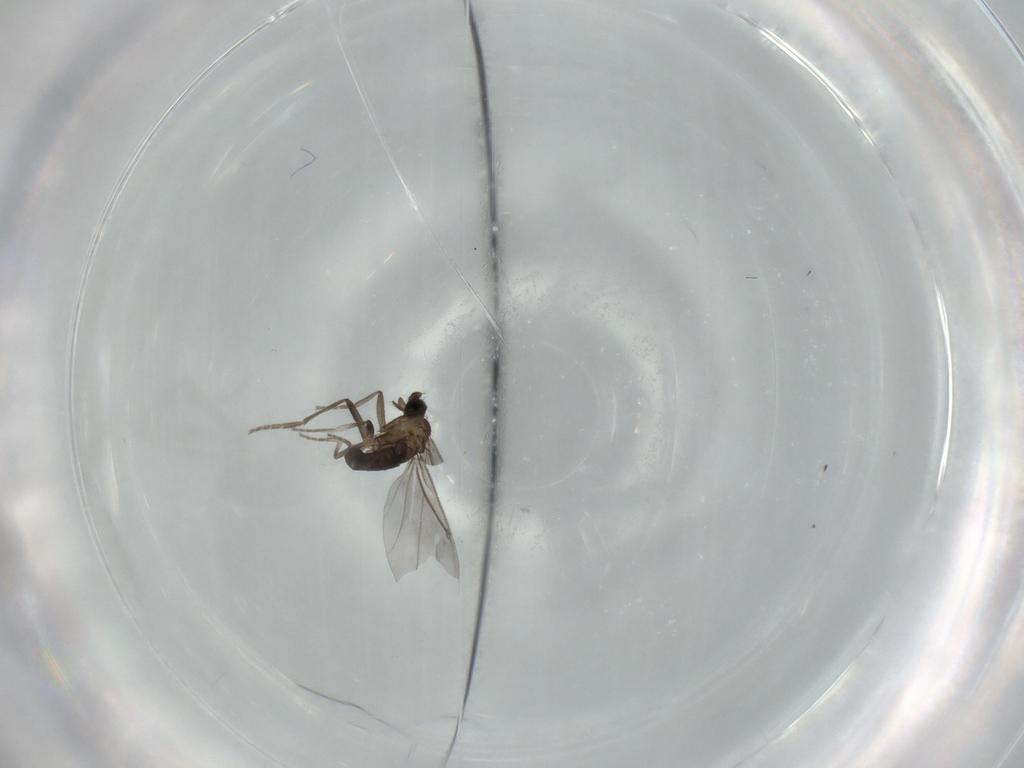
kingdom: Animalia
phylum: Arthropoda
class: Insecta
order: Diptera
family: Phoridae
